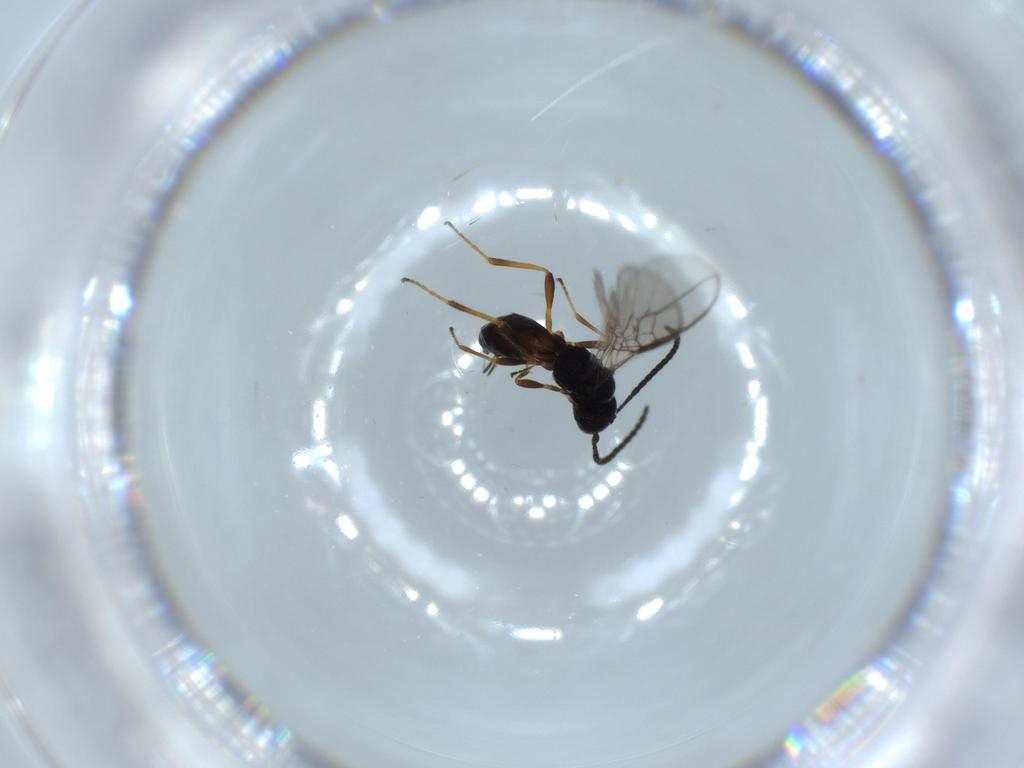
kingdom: Animalia
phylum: Arthropoda
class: Insecta
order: Hymenoptera
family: Braconidae
